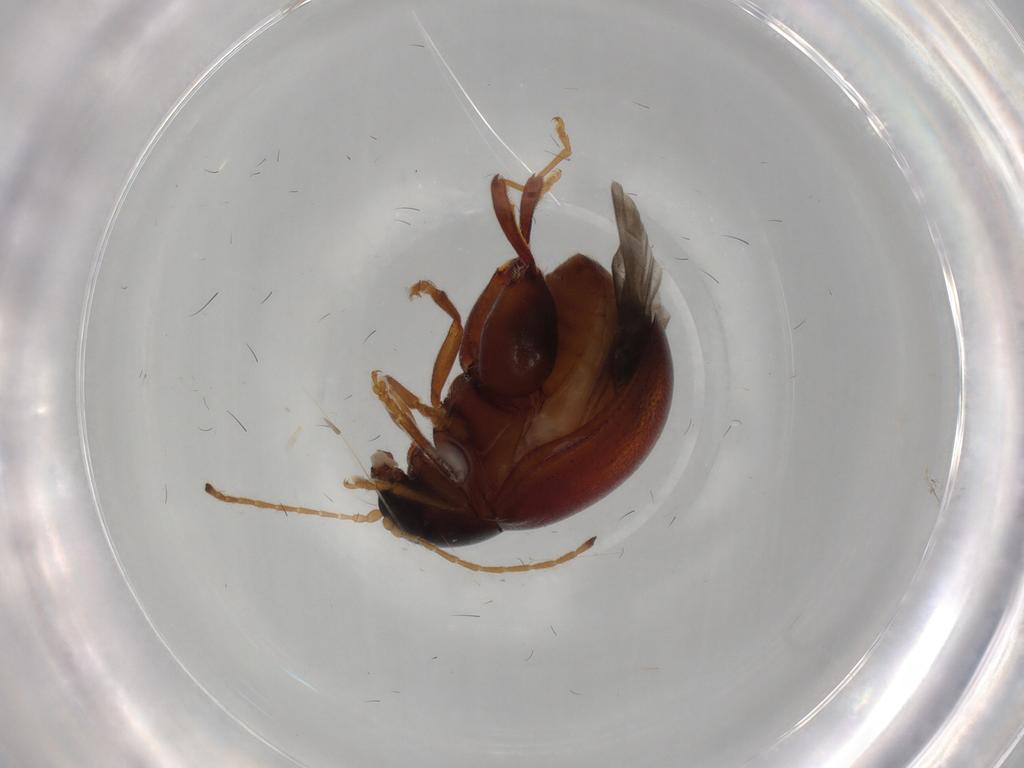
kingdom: Animalia
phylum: Arthropoda
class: Insecta
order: Coleoptera
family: Chrysomelidae
